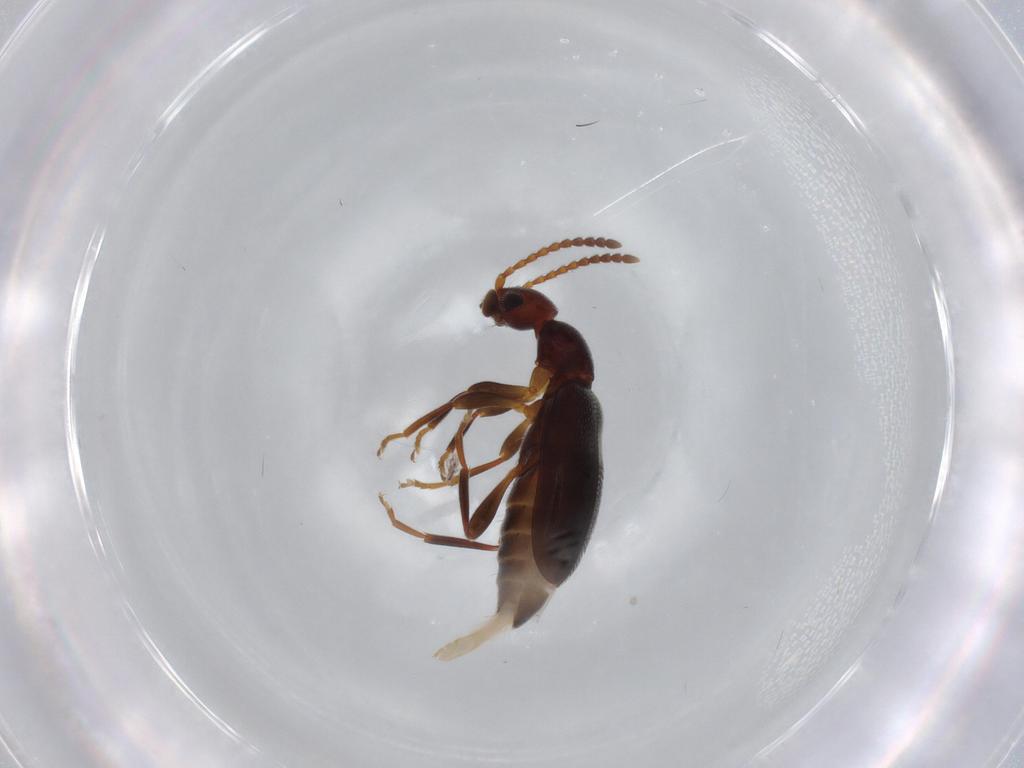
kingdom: Animalia
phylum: Arthropoda
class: Insecta
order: Coleoptera
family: Anthicidae
